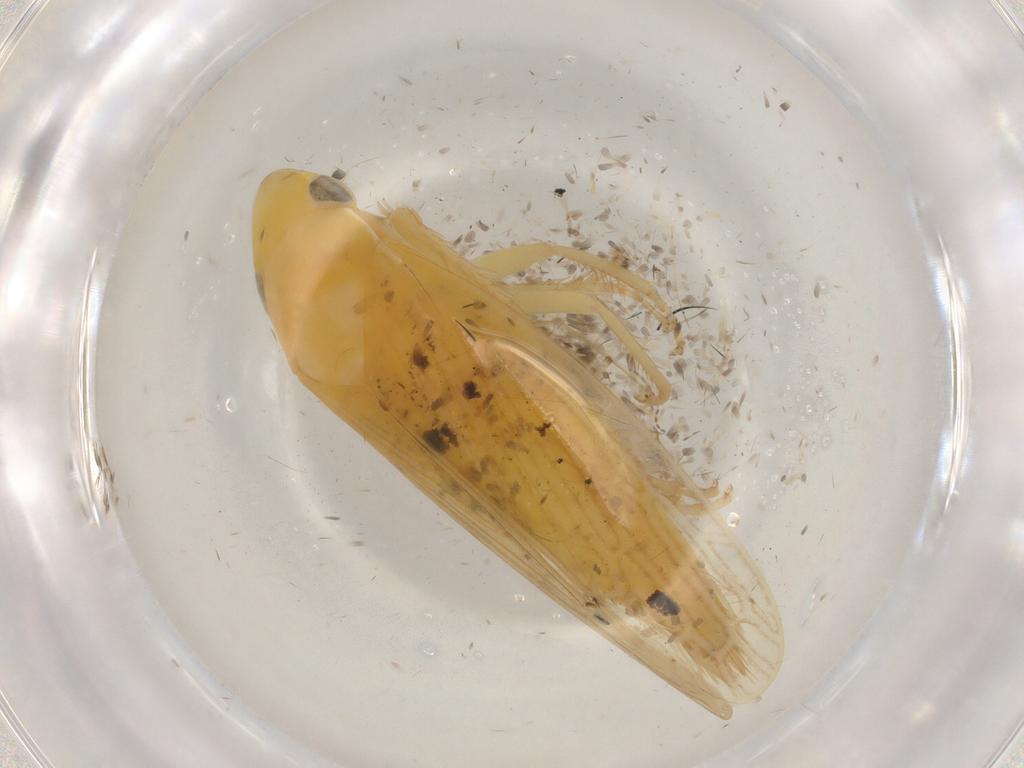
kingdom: Animalia
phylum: Arthropoda
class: Insecta
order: Hemiptera
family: Cicadellidae
